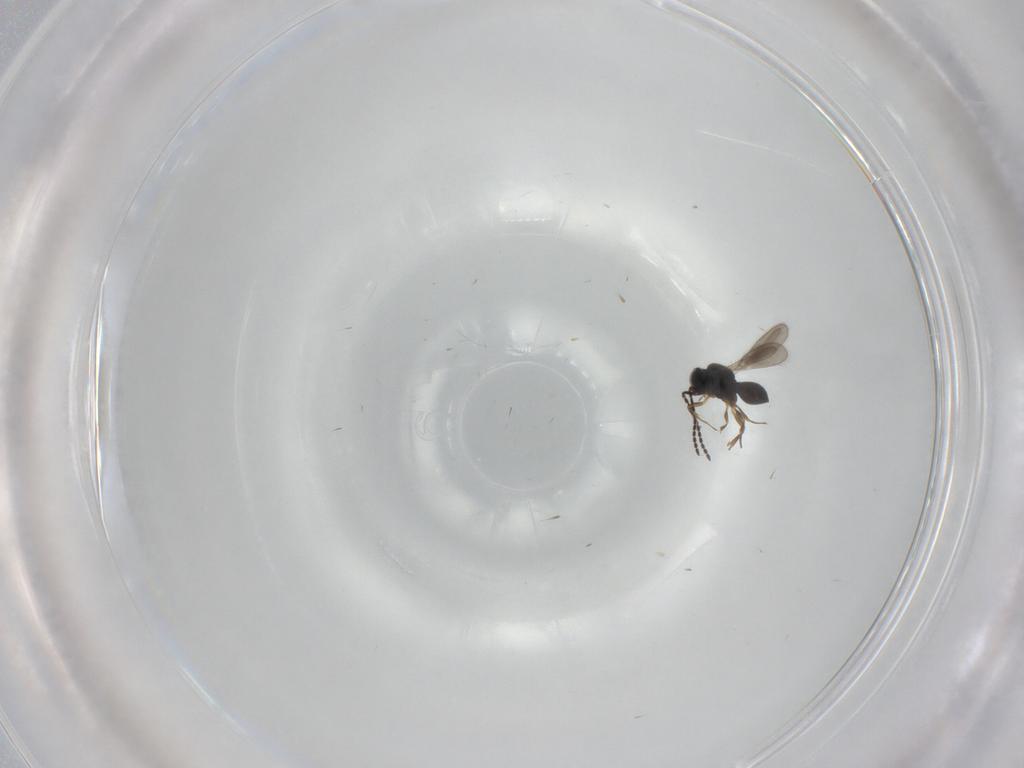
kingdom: Animalia
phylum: Arthropoda
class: Insecta
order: Hymenoptera
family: Scelionidae
